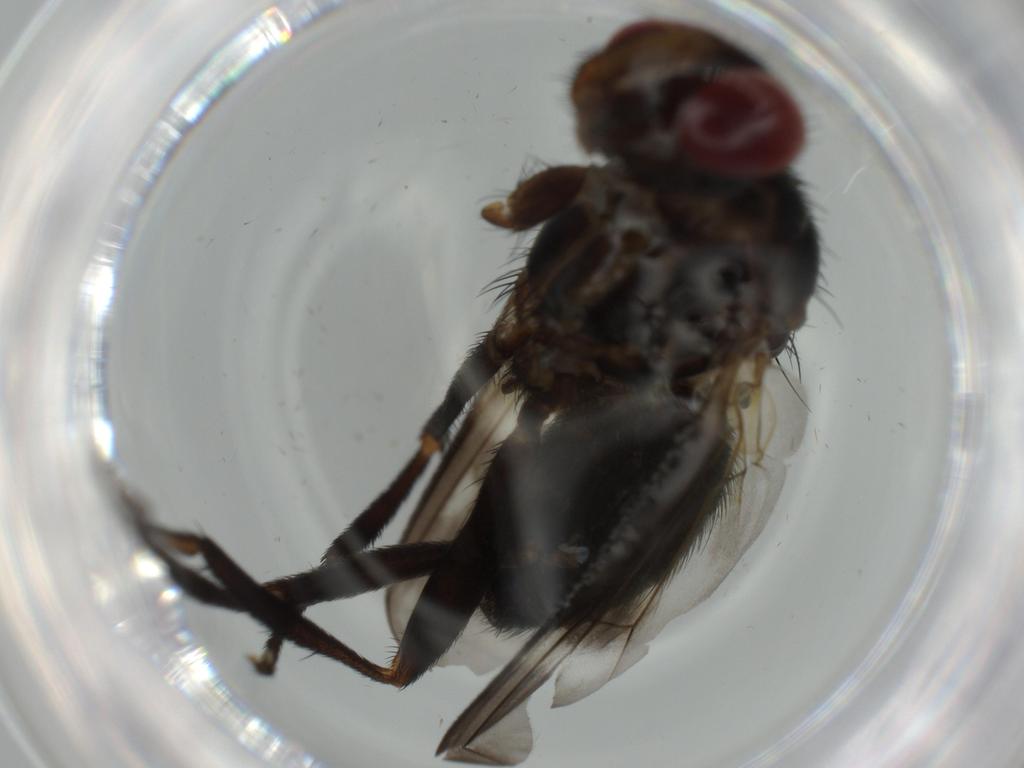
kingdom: Animalia
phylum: Arthropoda
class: Insecta
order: Diptera
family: Calliphoridae
